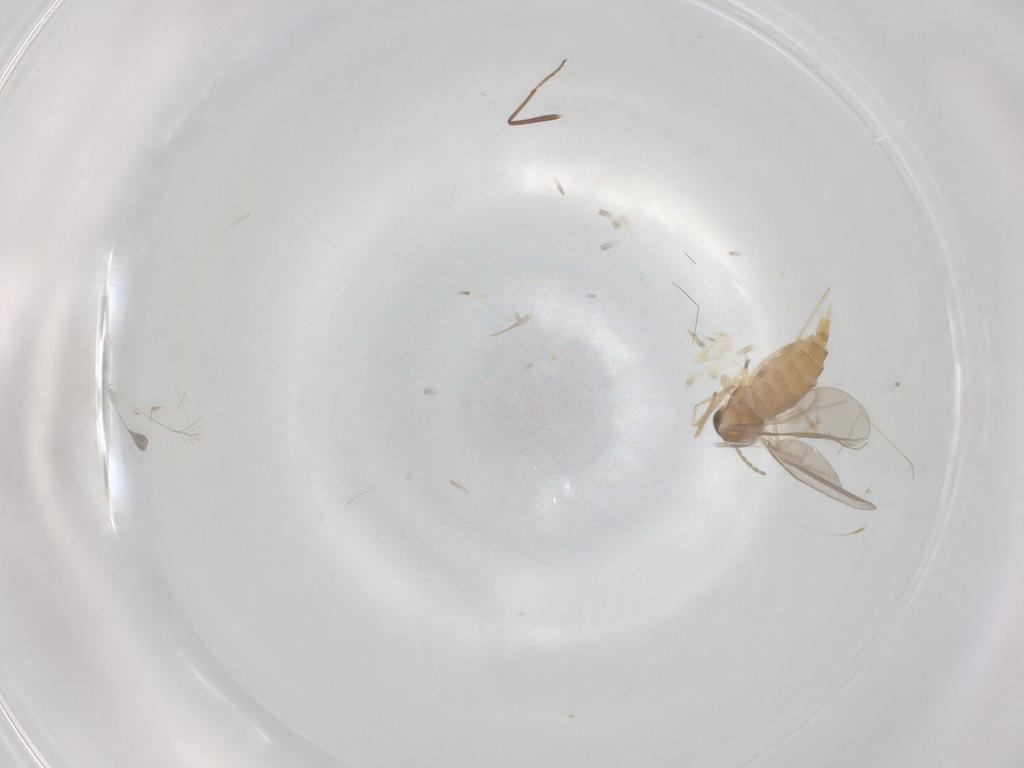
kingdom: Animalia
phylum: Arthropoda
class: Insecta
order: Diptera
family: Cecidomyiidae
